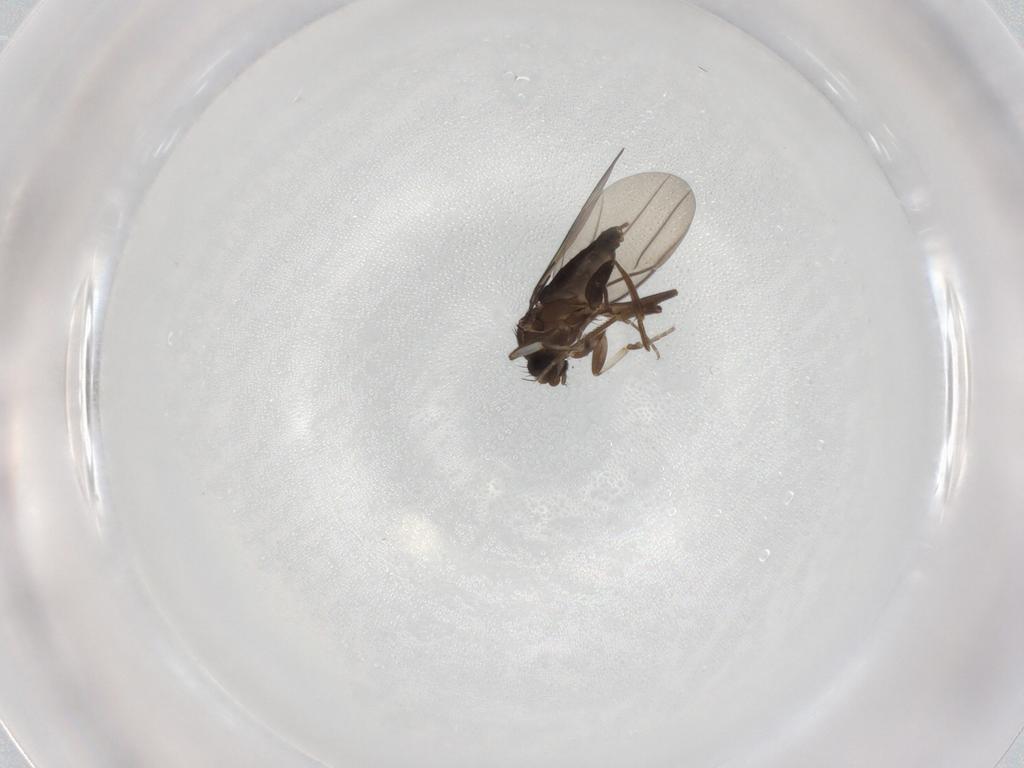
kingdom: Animalia
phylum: Arthropoda
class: Insecta
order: Diptera
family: Phoridae
